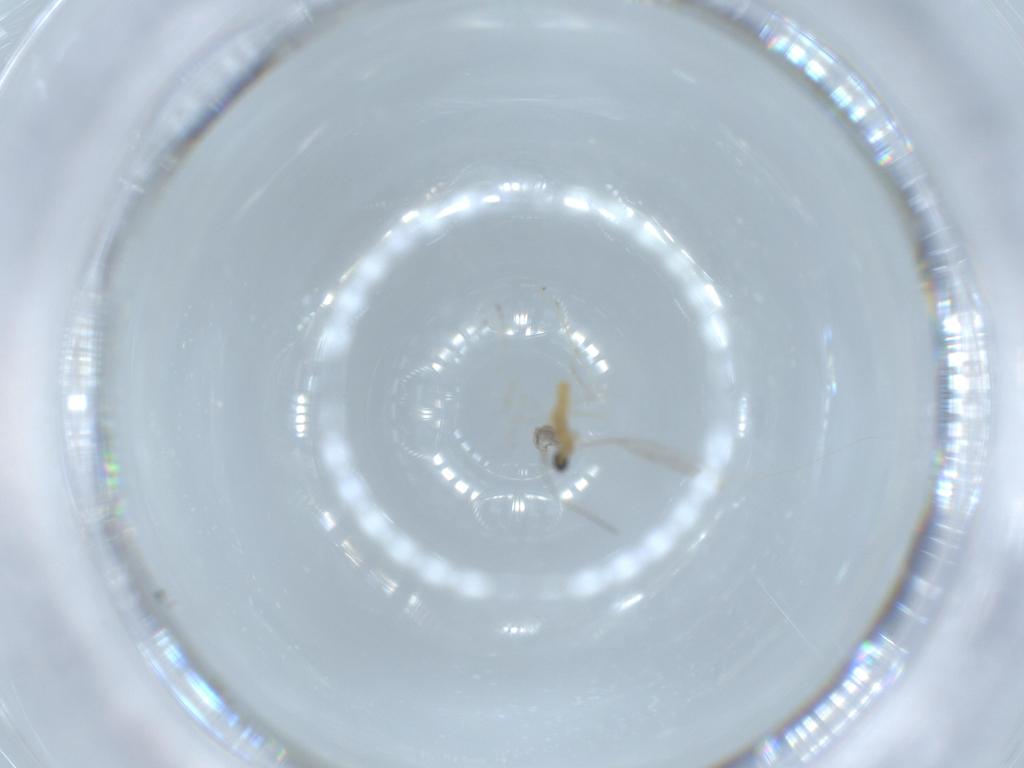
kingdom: Animalia
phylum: Arthropoda
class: Insecta
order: Diptera
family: Cecidomyiidae
